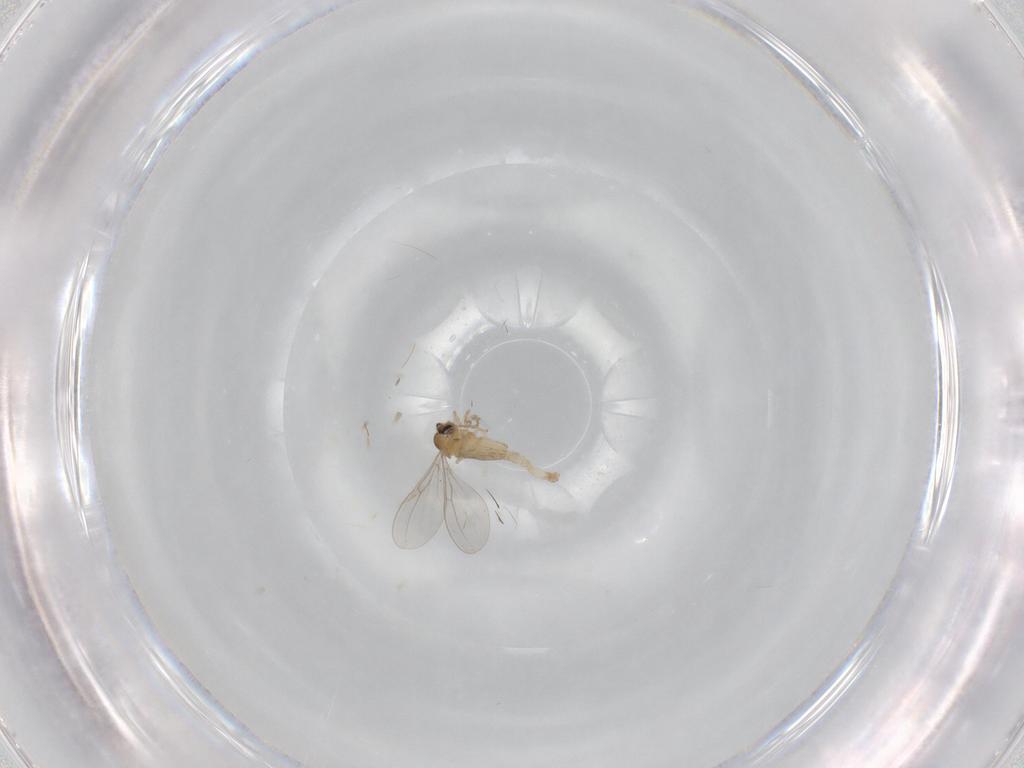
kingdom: Animalia
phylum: Arthropoda
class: Insecta
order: Diptera
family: Cecidomyiidae
